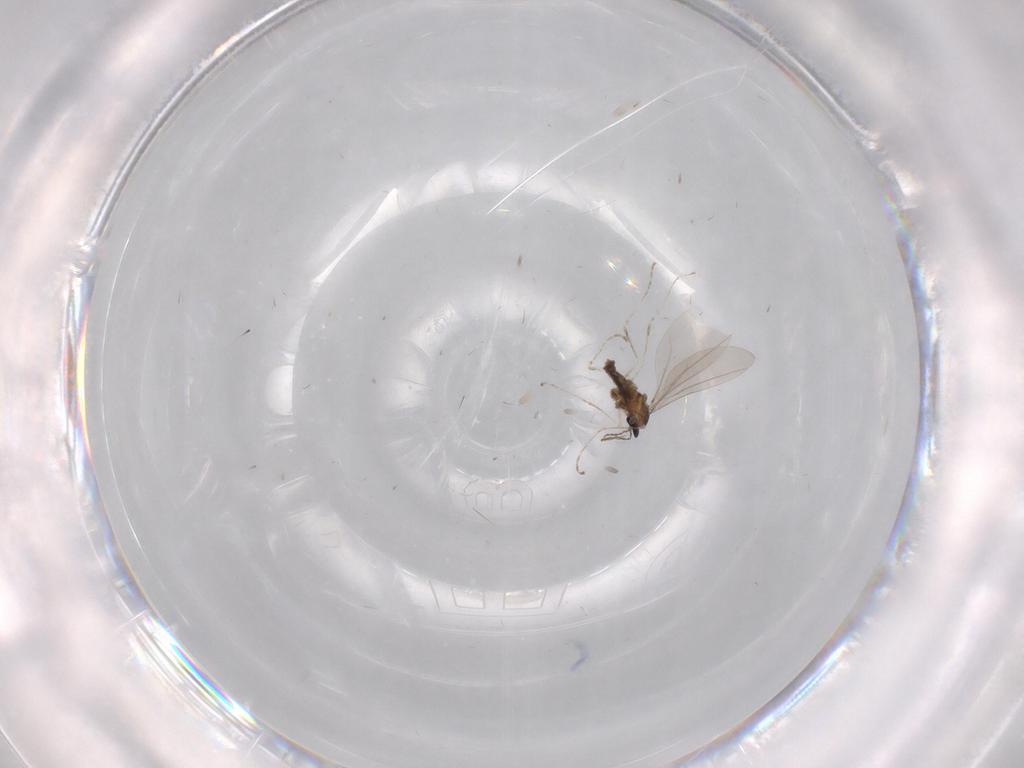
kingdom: Animalia
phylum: Arthropoda
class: Insecta
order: Diptera
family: Cecidomyiidae
